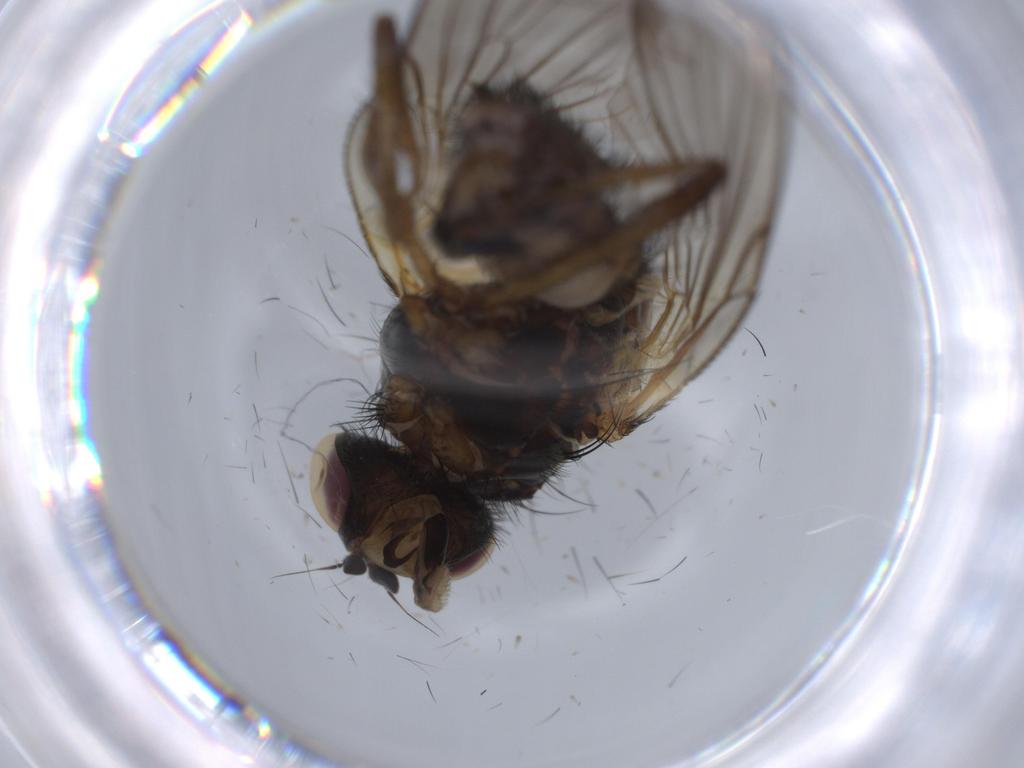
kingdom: Animalia
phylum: Arthropoda
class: Insecta
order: Diptera
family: Anthomyiidae
